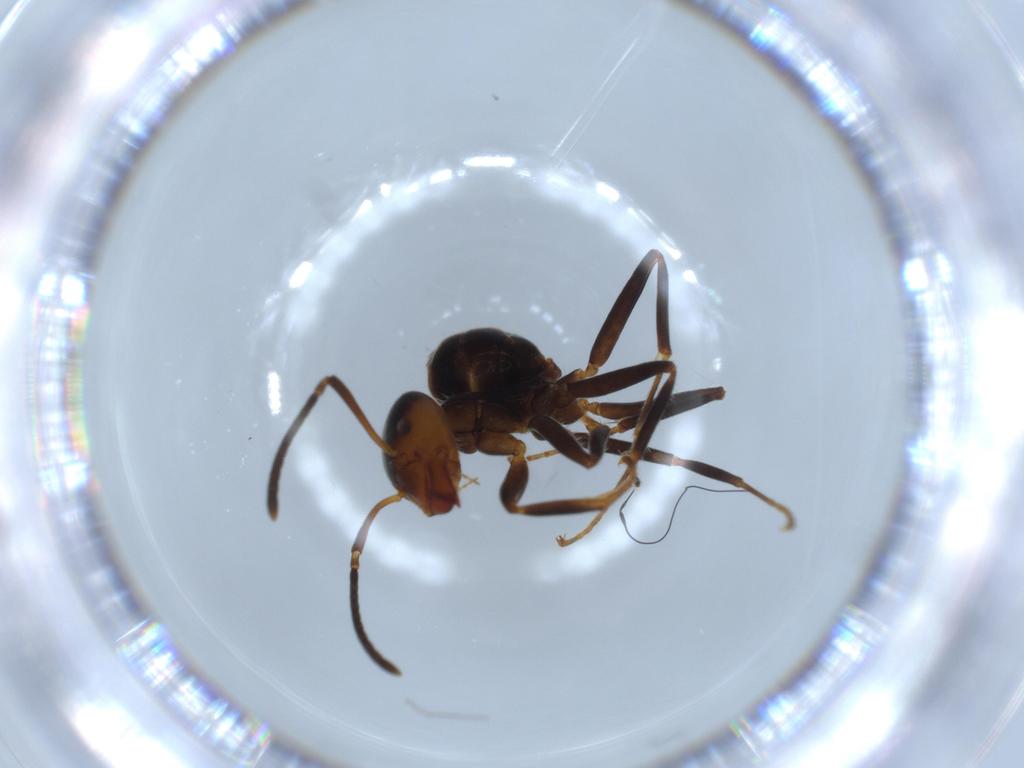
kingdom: Animalia
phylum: Arthropoda
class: Insecta
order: Hymenoptera
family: Formicidae
